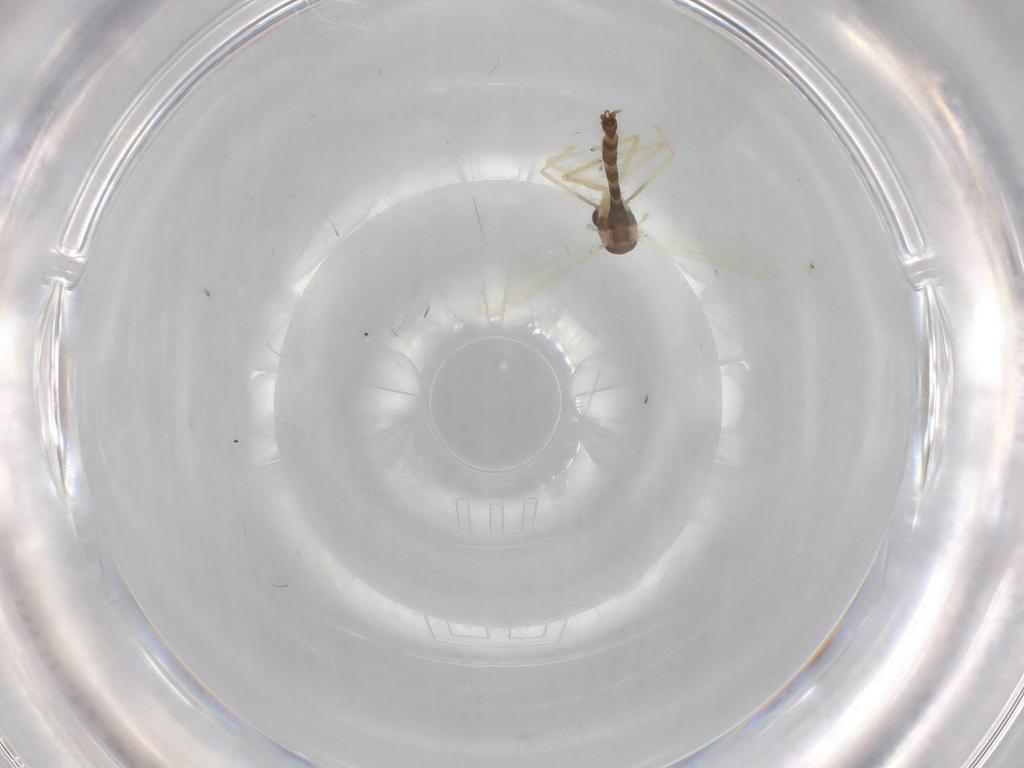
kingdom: Animalia
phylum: Arthropoda
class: Insecta
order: Diptera
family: Chironomidae
